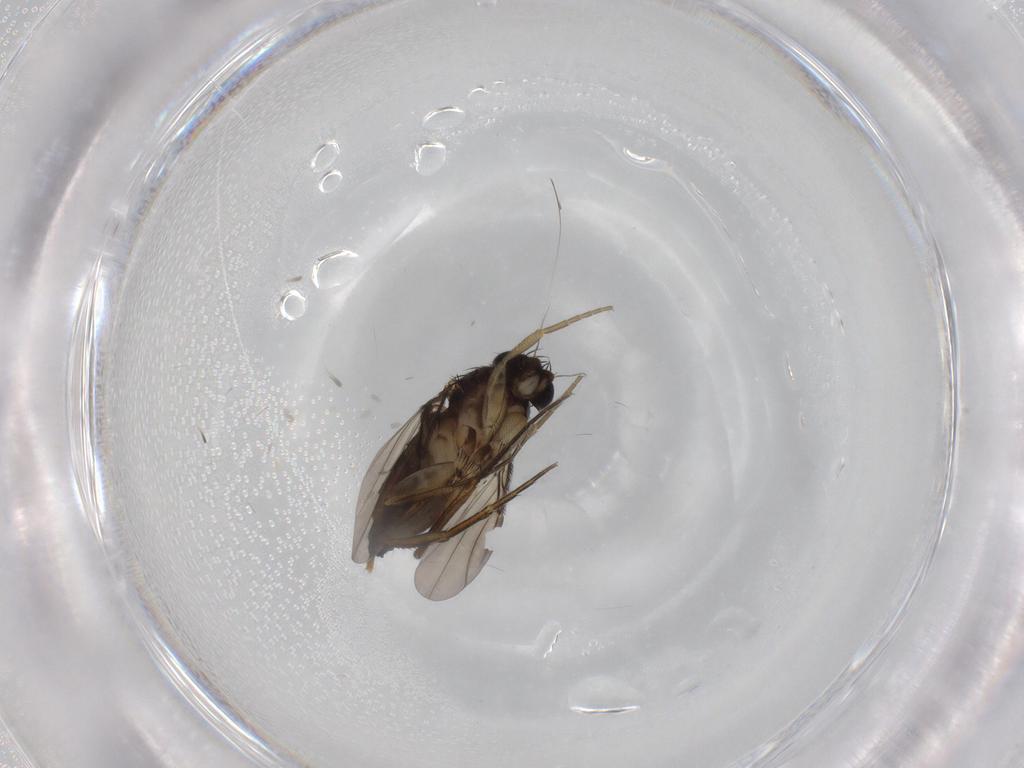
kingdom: Animalia
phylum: Arthropoda
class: Insecta
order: Diptera
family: Phoridae
